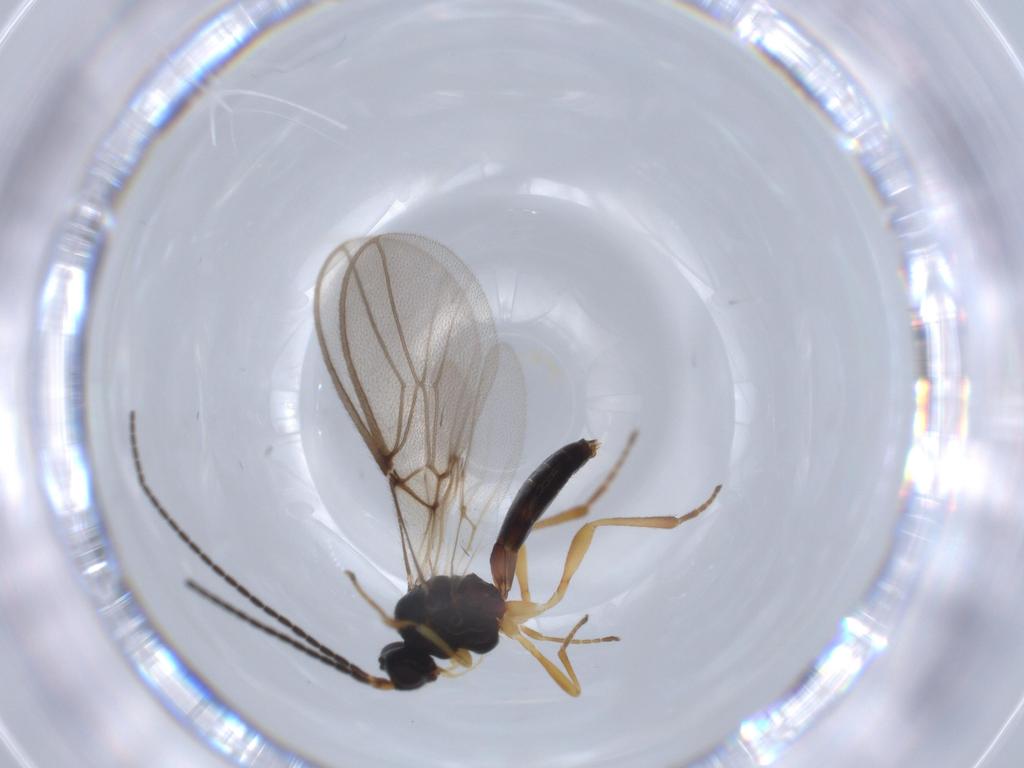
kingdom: Animalia
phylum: Arthropoda
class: Insecta
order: Hymenoptera
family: Braconidae
